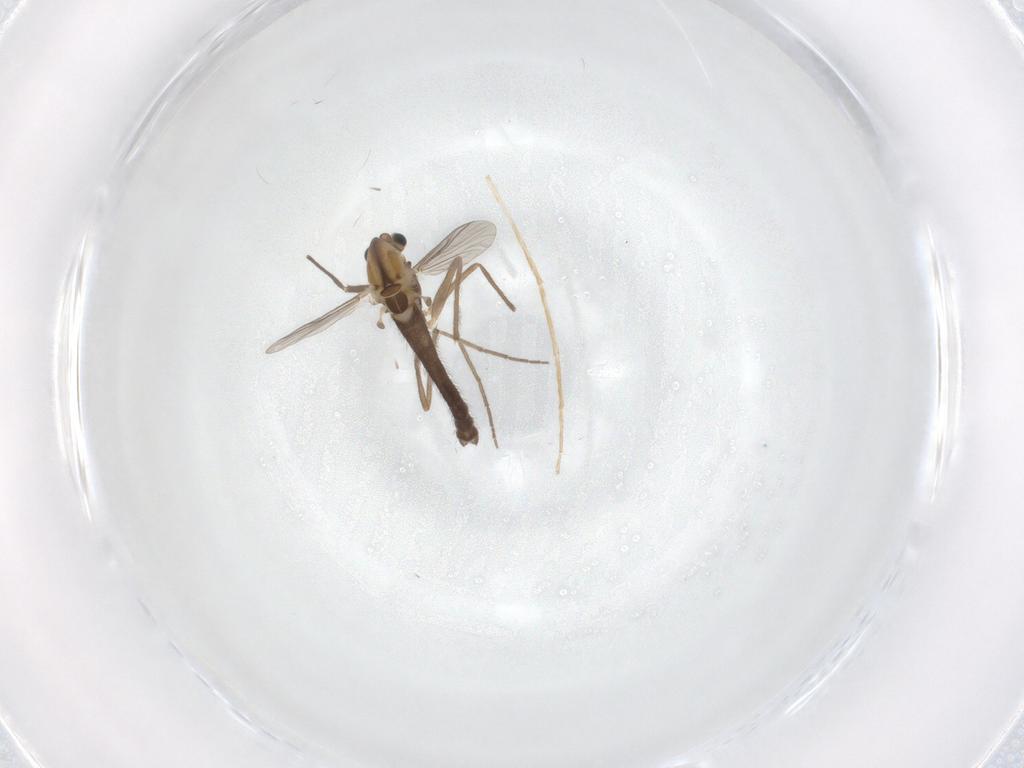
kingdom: Animalia
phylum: Arthropoda
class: Insecta
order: Diptera
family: Chironomidae
